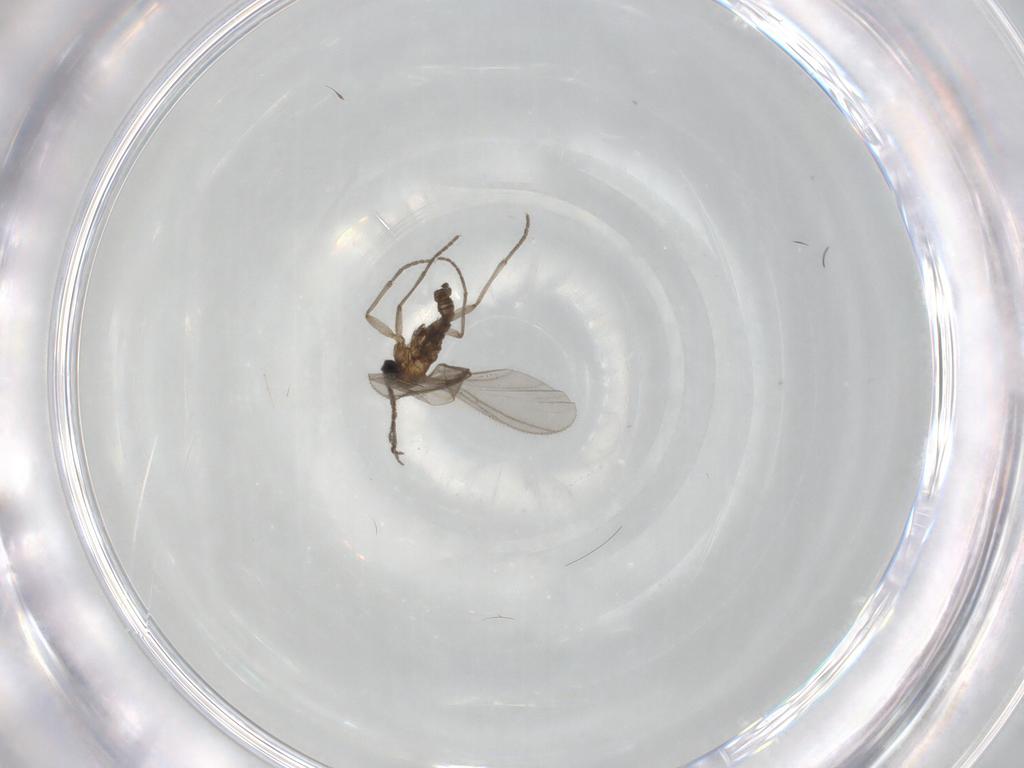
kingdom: Animalia
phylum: Arthropoda
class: Insecta
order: Diptera
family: Sciaridae
